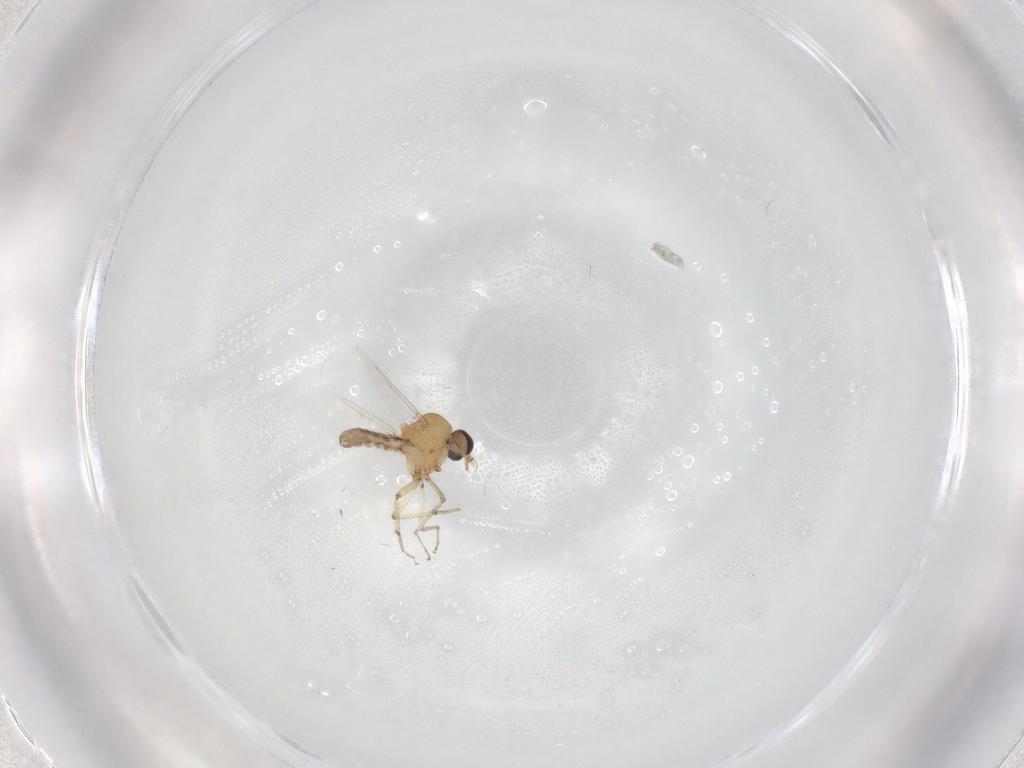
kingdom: Animalia
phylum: Arthropoda
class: Insecta
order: Diptera
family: Ceratopogonidae
